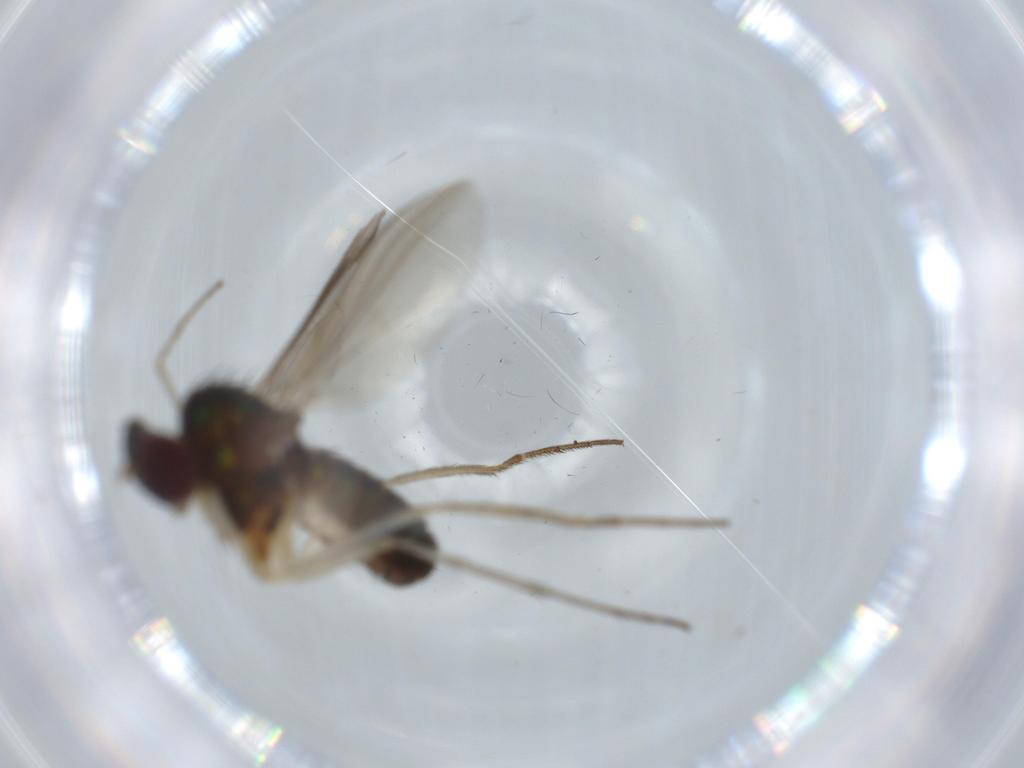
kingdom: Animalia
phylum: Arthropoda
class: Insecta
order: Diptera
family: Dolichopodidae
